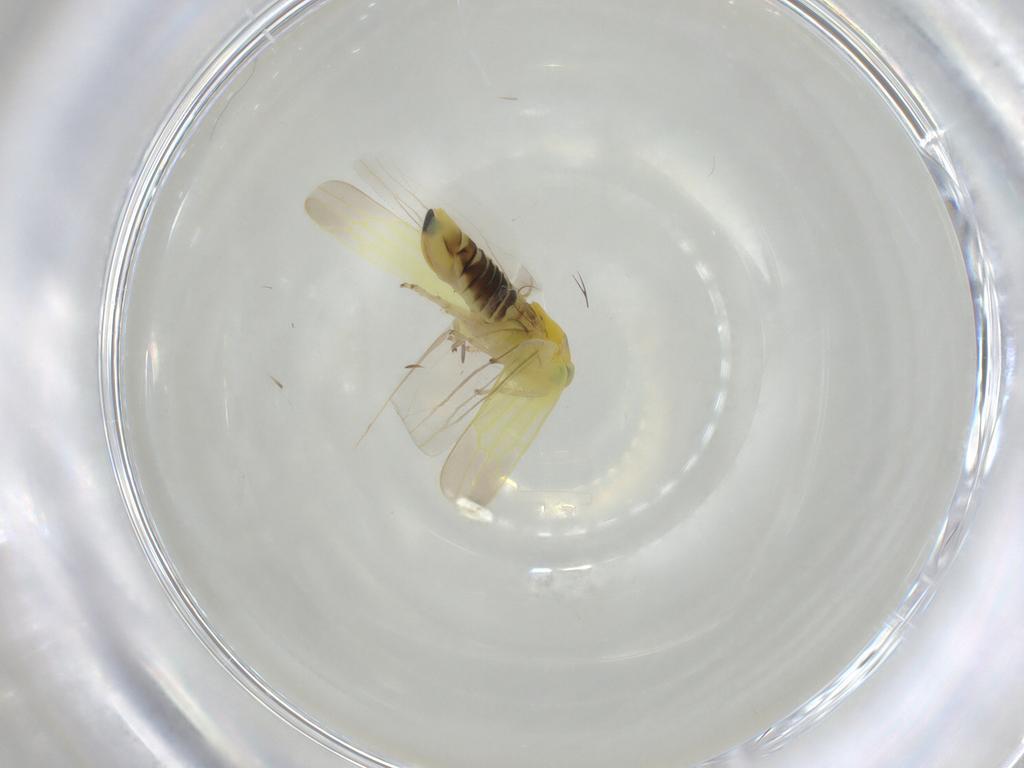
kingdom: Animalia
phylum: Arthropoda
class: Insecta
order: Hemiptera
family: Cicadellidae
